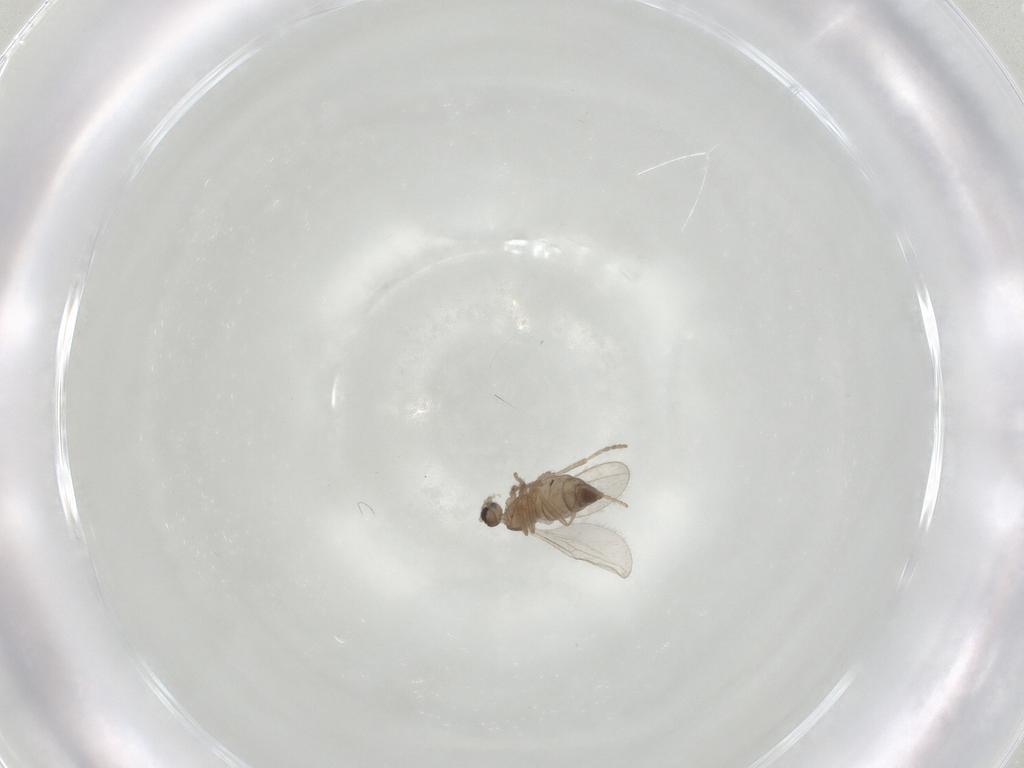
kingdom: Animalia
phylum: Arthropoda
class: Insecta
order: Diptera
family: Cecidomyiidae
